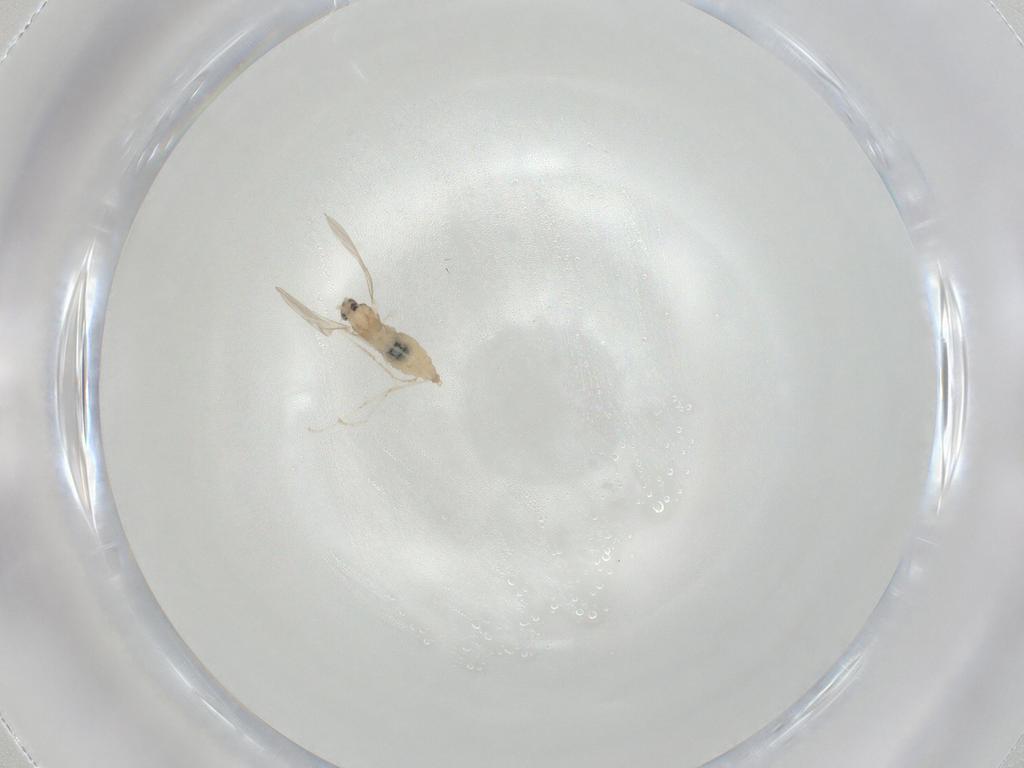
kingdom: Animalia
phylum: Arthropoda
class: Insecta
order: Diptera
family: Cecidomyiidae
